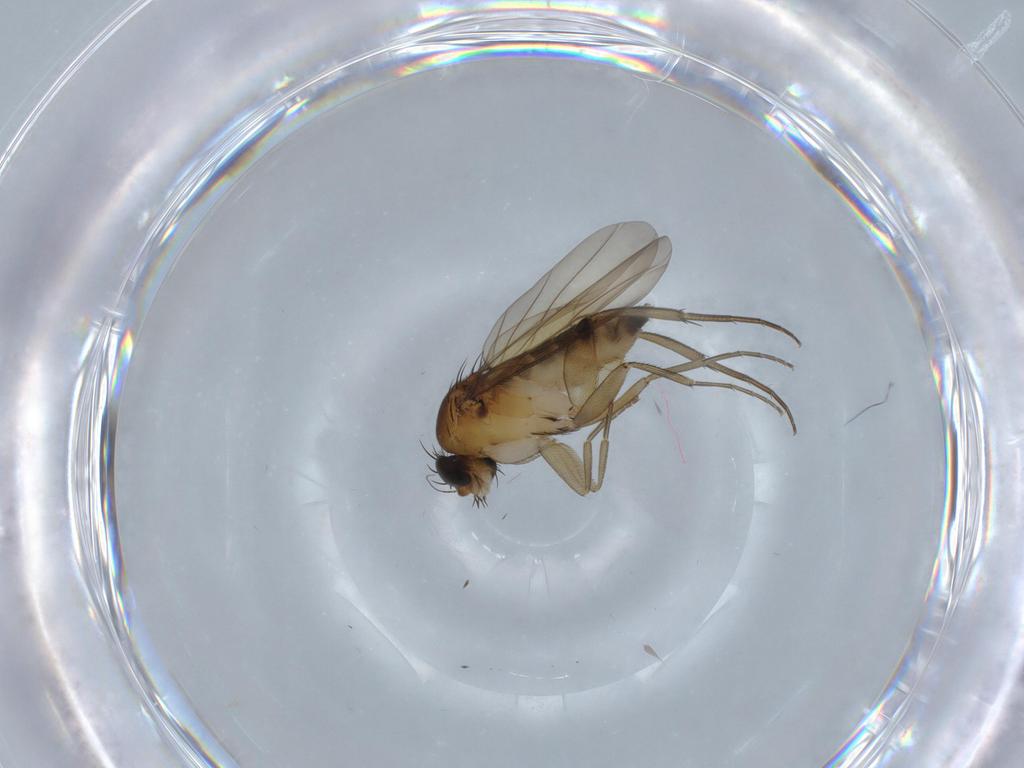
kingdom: Animalia
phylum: Arthropoda
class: Insecta
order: Diptera
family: Phoridae
